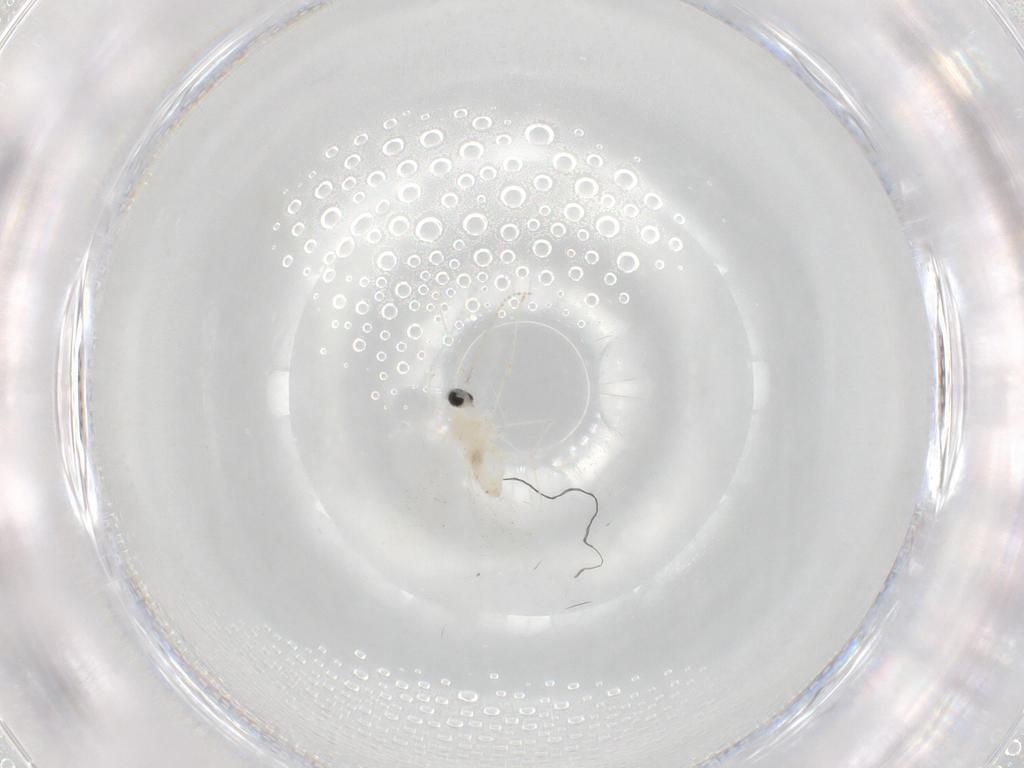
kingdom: Animalia
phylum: Arthropoda
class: Insecta
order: Diptera
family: Cecidomyiidae
